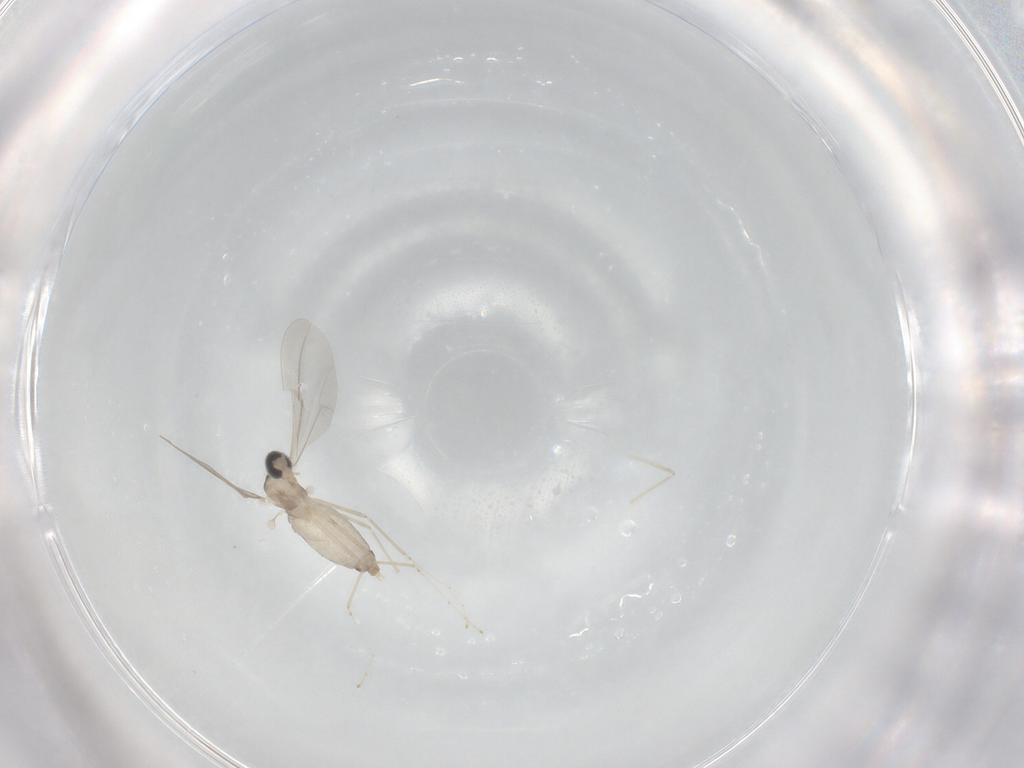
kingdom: Animalia
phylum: Arthropoda
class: Insecta
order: Diptera
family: Cecidomyiidae
